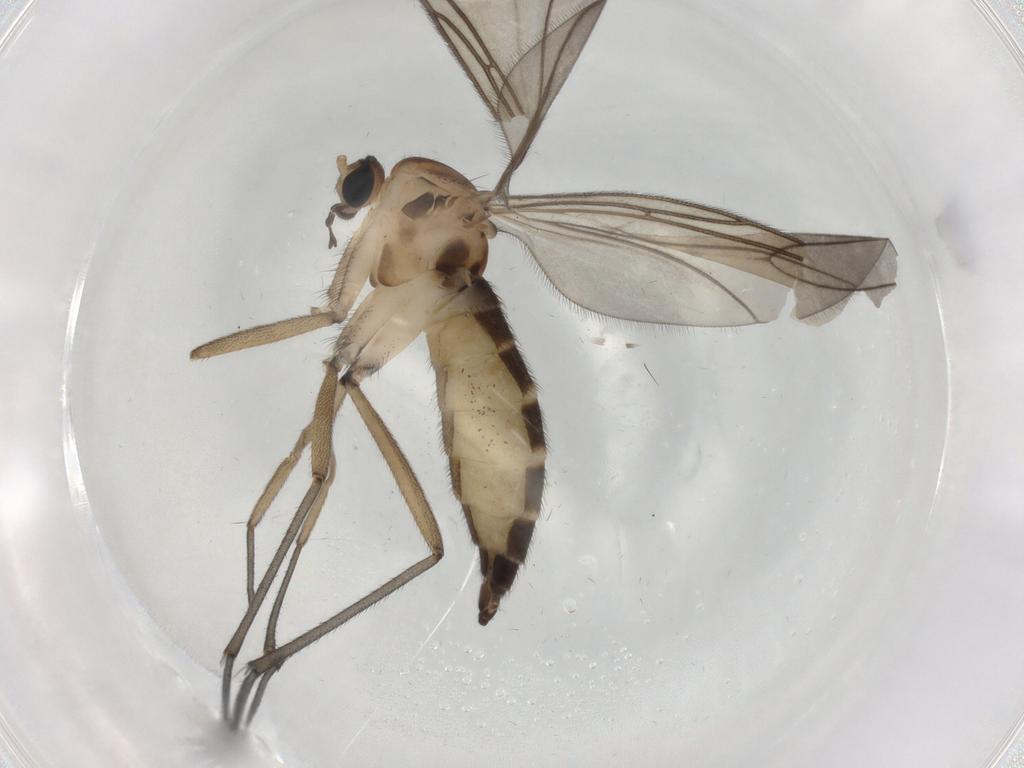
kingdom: Animalia
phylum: Arthropoda
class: Insecta
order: Diptera
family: Sciaridae
